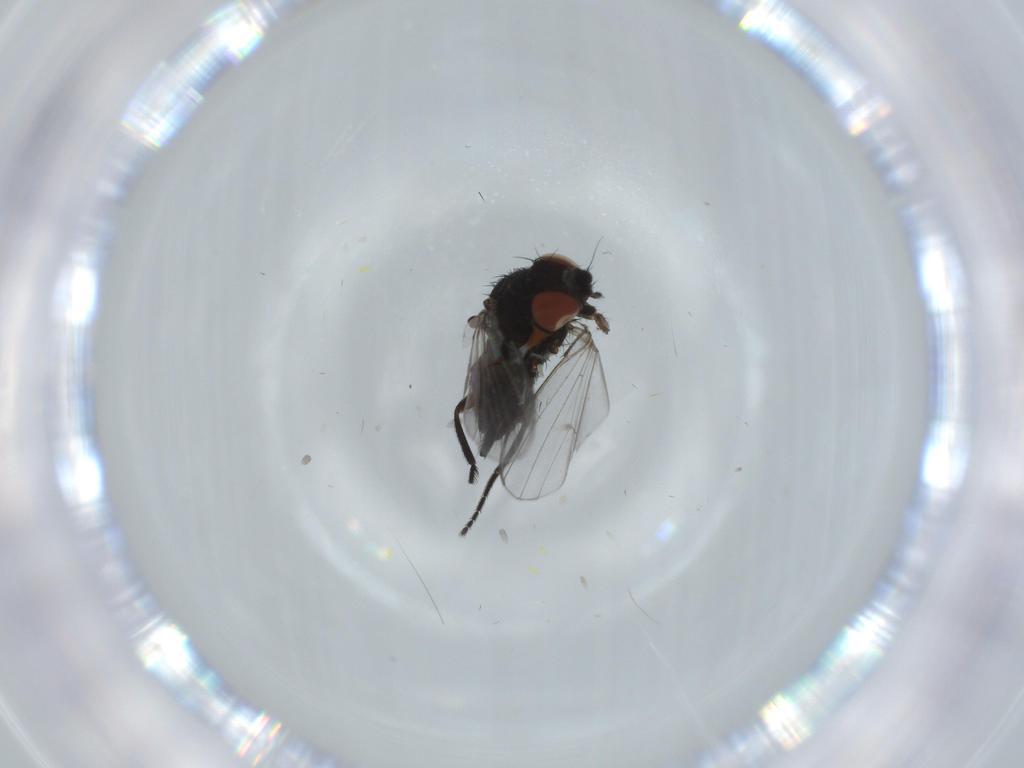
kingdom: Animalia
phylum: Arthropoda
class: Insecta
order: Diptera
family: Milichiidae
